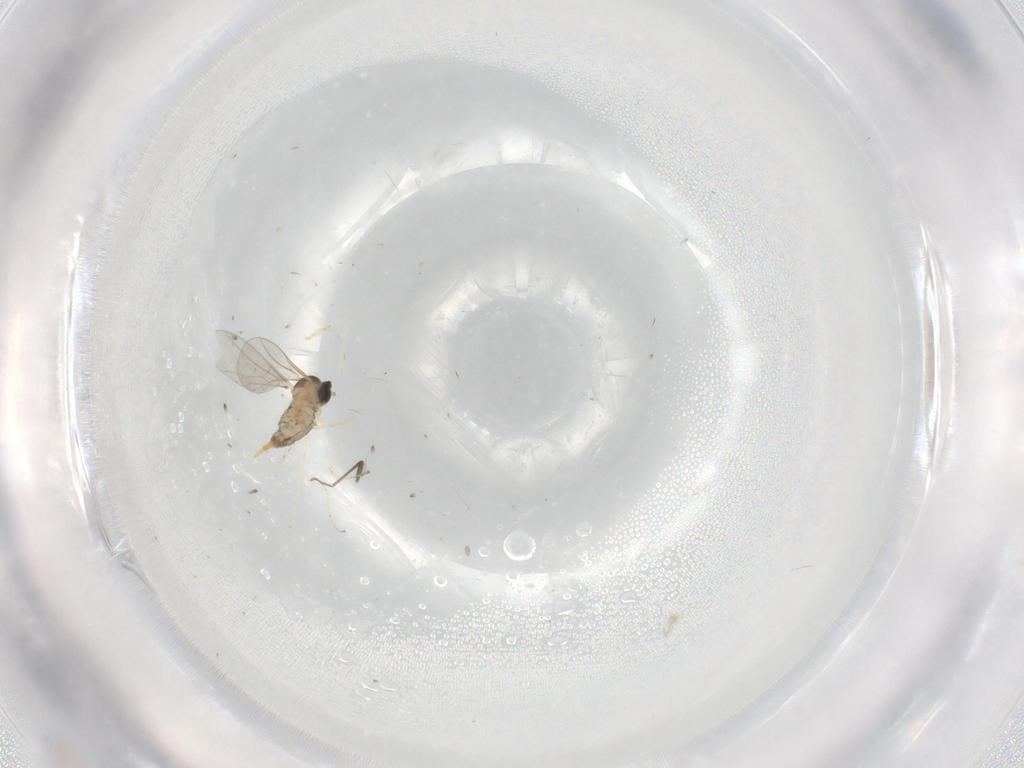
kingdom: Animalia
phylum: Arthropoda
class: Insecta
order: Diptera
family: Chironomidae
